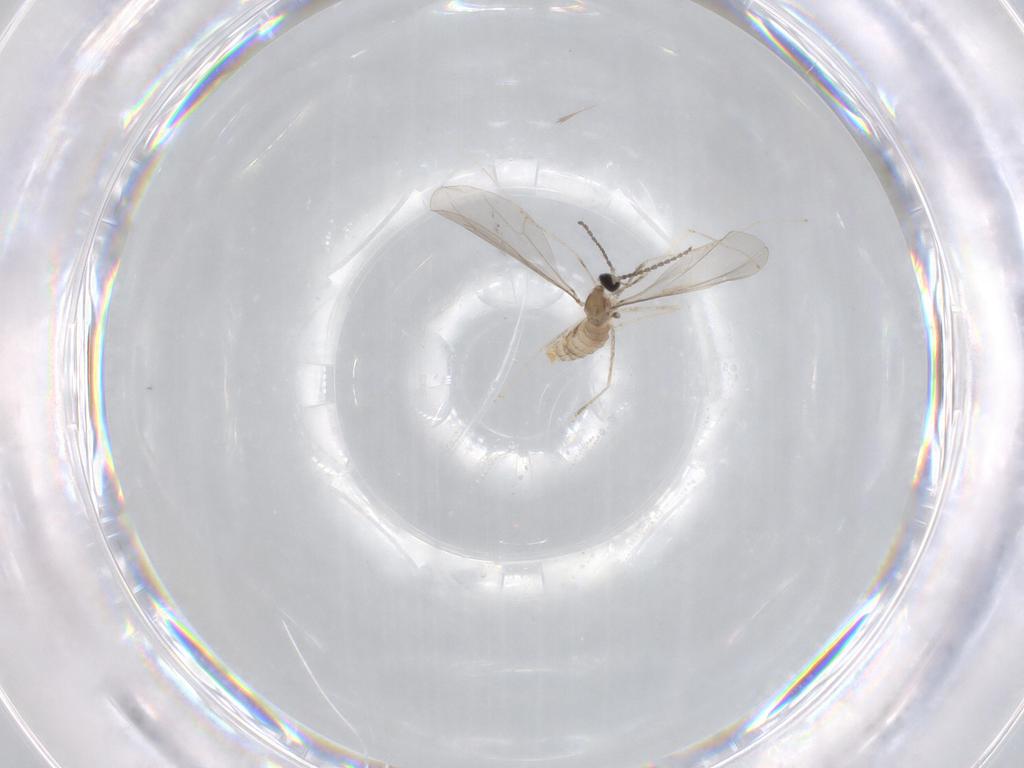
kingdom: Animalia
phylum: Arthropoda
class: Insecta
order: Diptera
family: Cecidomyiidae
